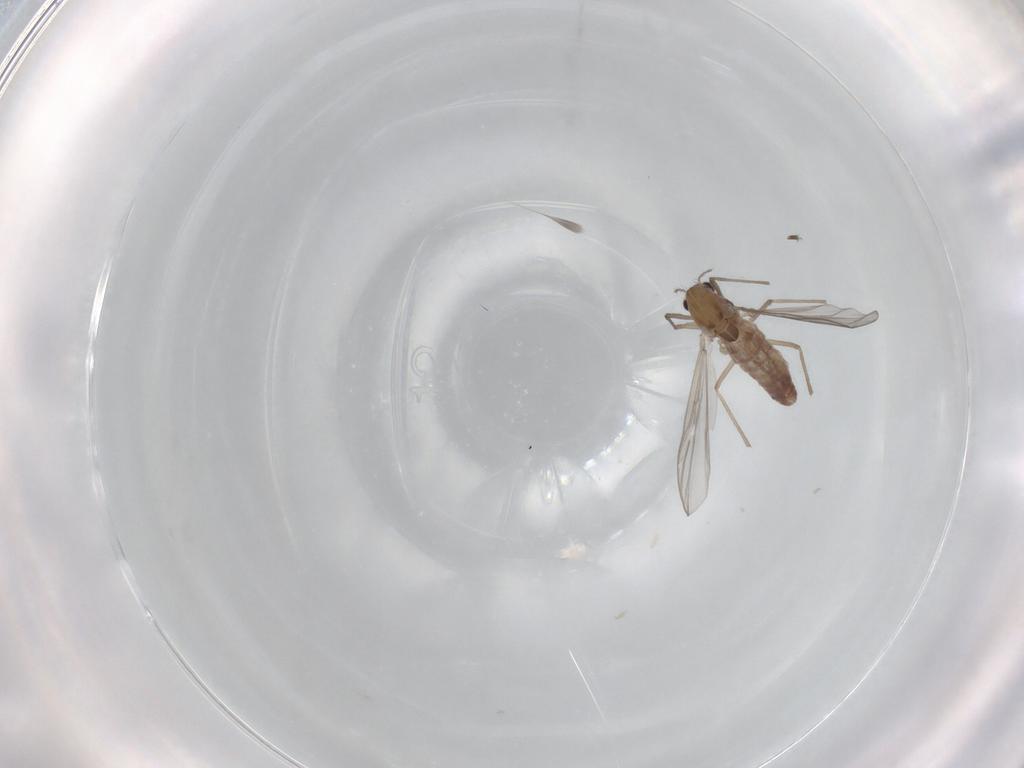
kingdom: Animalia
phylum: Arthropoda
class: Insecta
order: Diptera
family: Chironomidae
